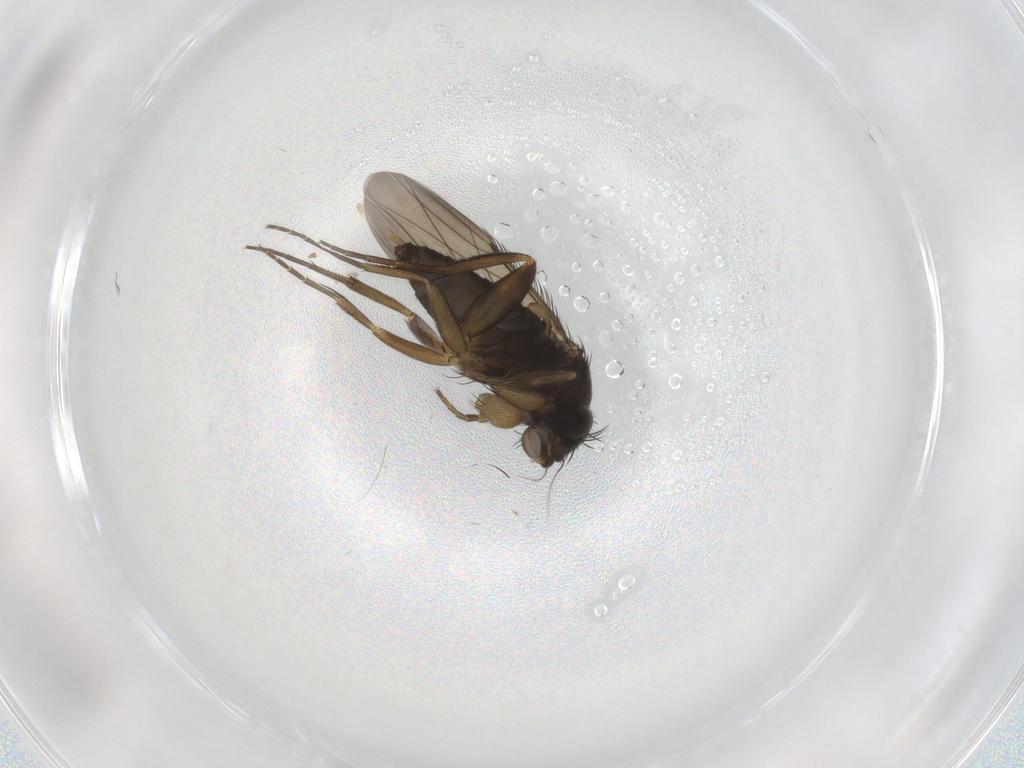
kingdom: Animalia
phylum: Arthropoda
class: Insecta
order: Diptera
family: Phoridae
